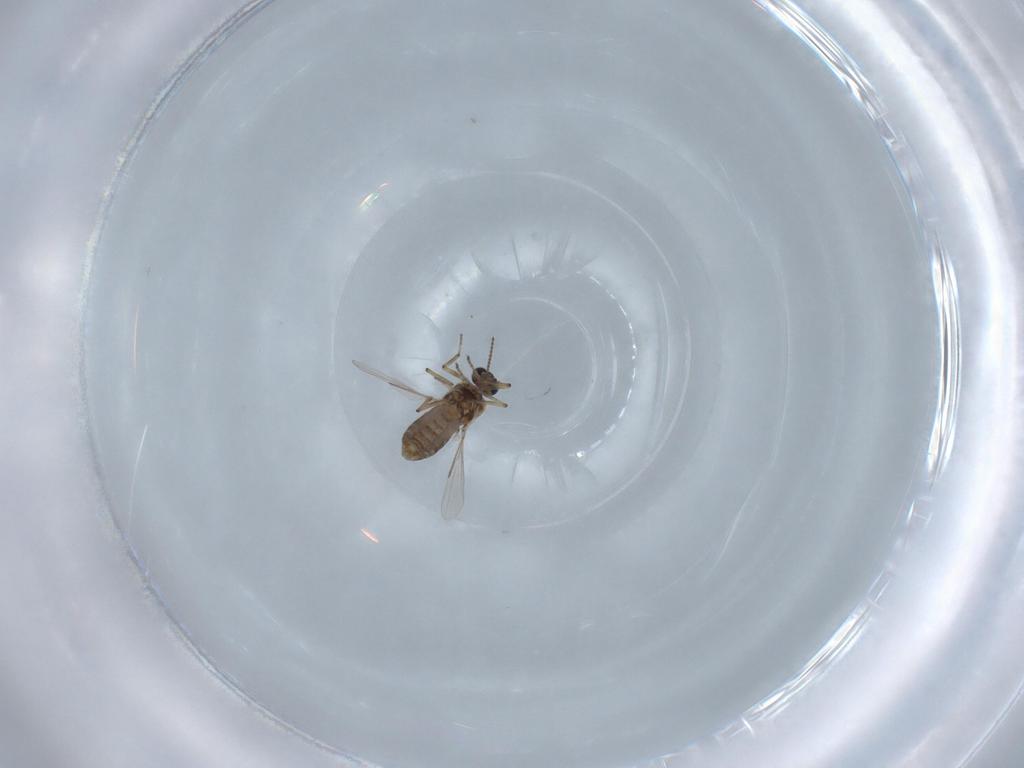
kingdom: Animalia
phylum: Arthropoda
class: Insecta
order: Diptera
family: Ceratopogonidae
